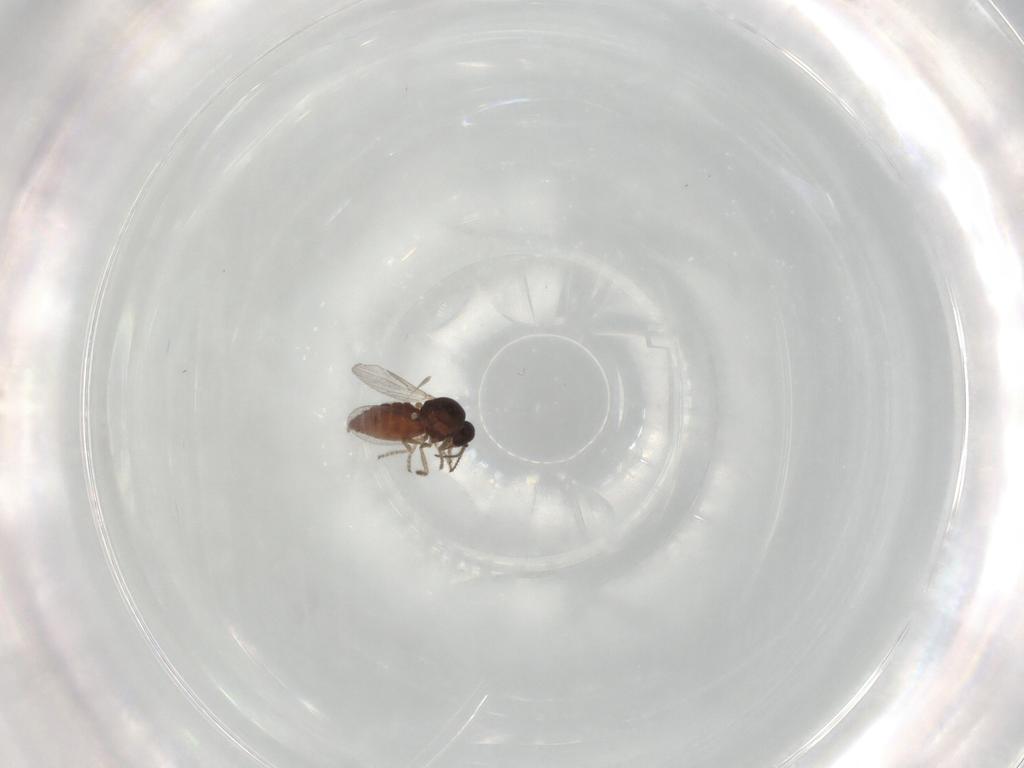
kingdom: Animalia
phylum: Arthropoda
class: Insecta
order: Diptera
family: Ceratopogonidae
